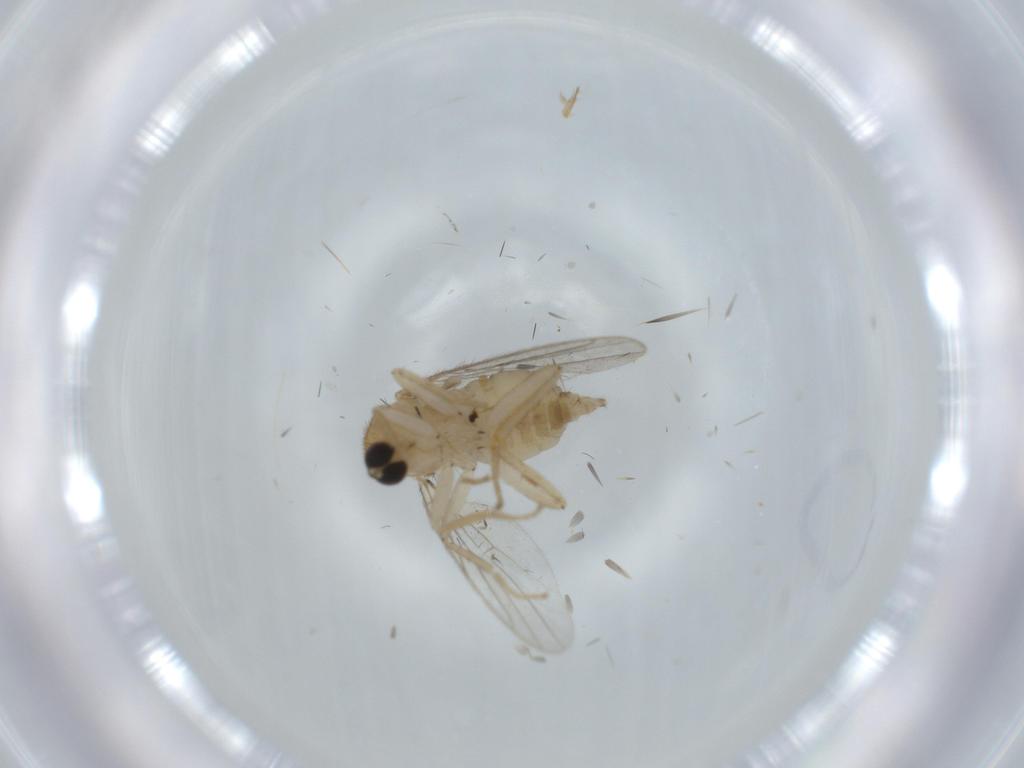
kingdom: Animalia
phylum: Arthropoda
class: Insecta
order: Diptera
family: Hybotidae
